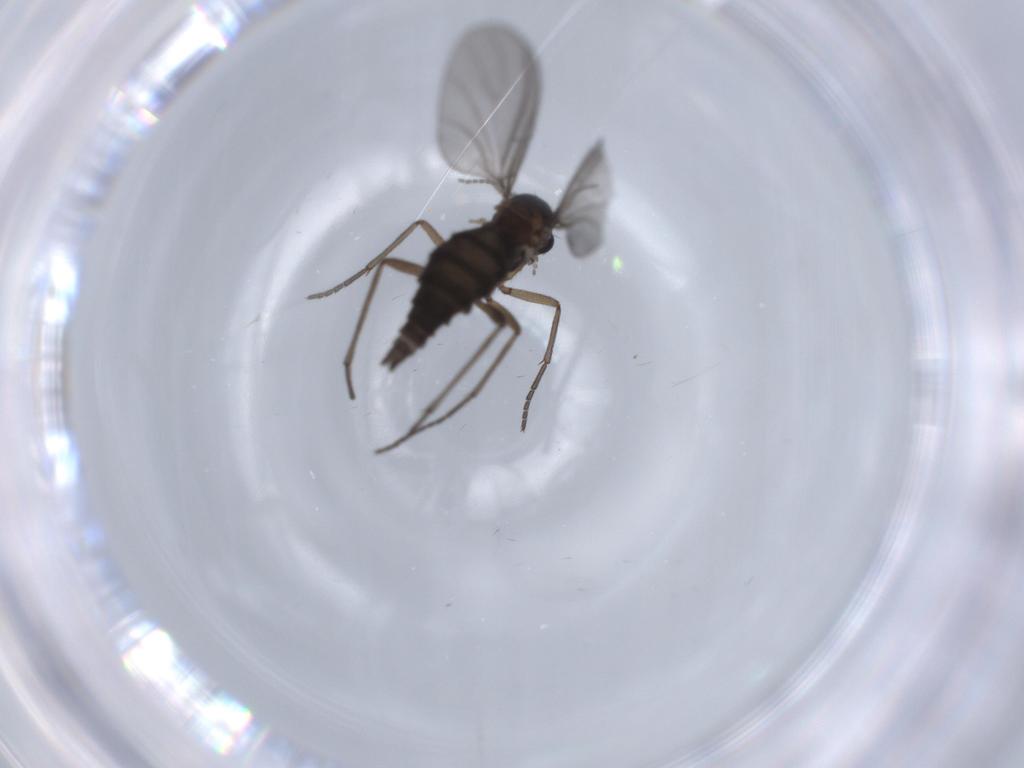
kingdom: Animalia
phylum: Arthropoda
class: Insecta
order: Diptera
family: Sciaridae
